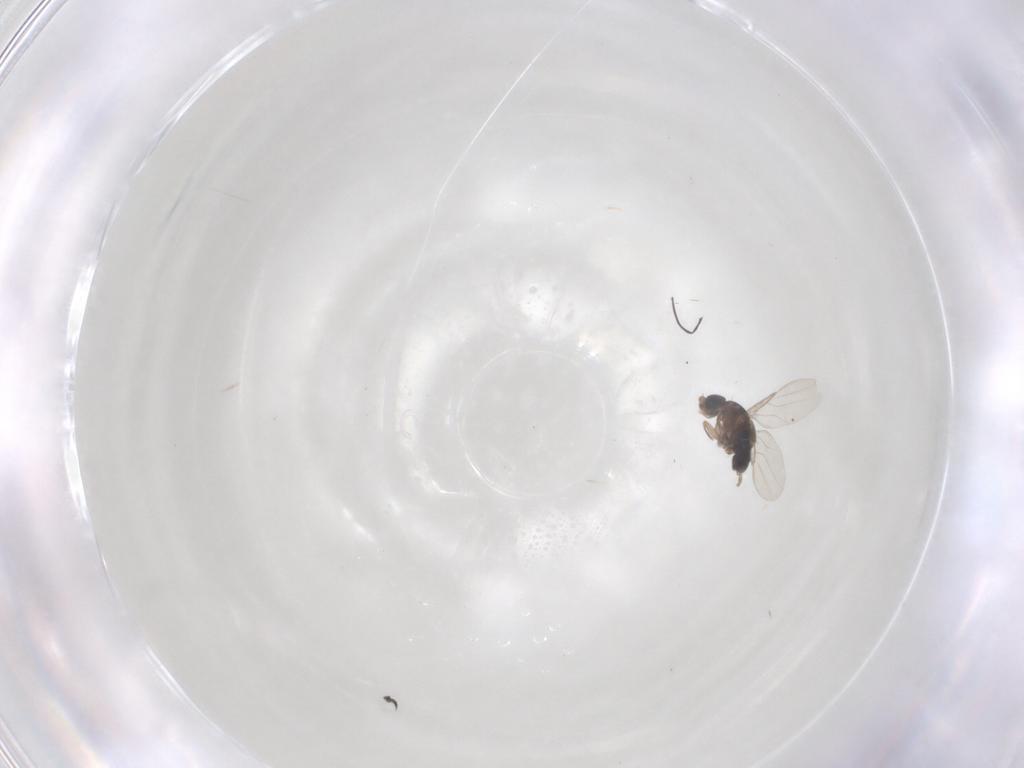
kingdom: Animalia
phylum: Arthropoda
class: Insecta
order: Diptera
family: Phoridae
